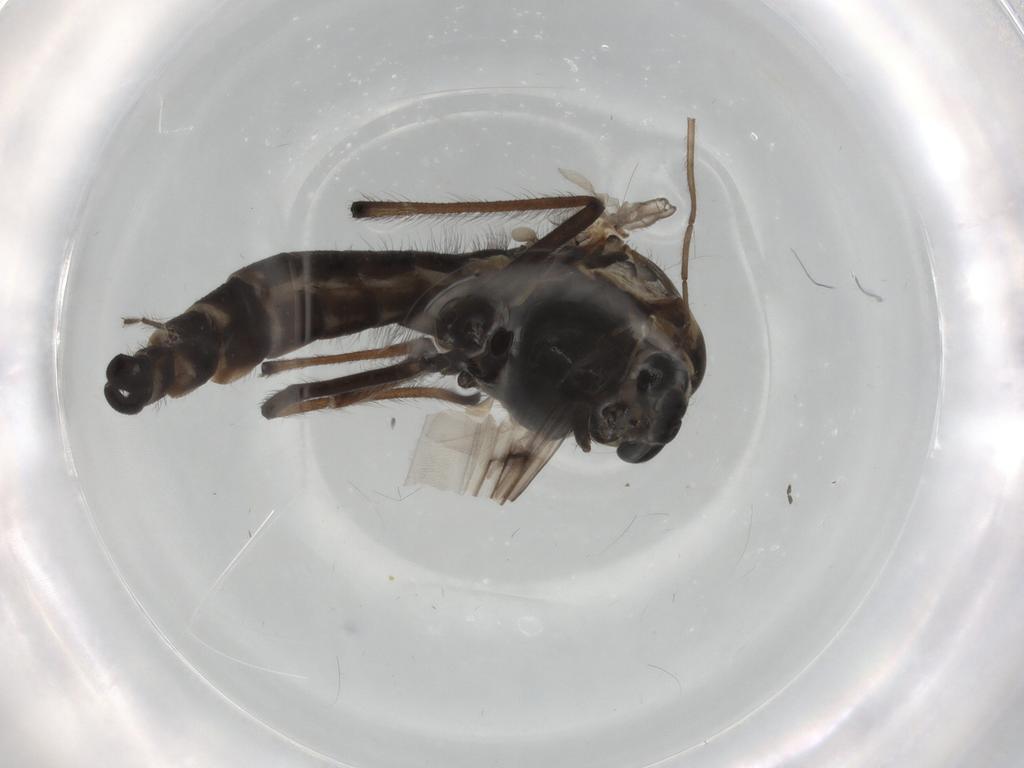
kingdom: Animalia
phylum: Arthropoda
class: Insecta
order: Diptera
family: Chironomidae
